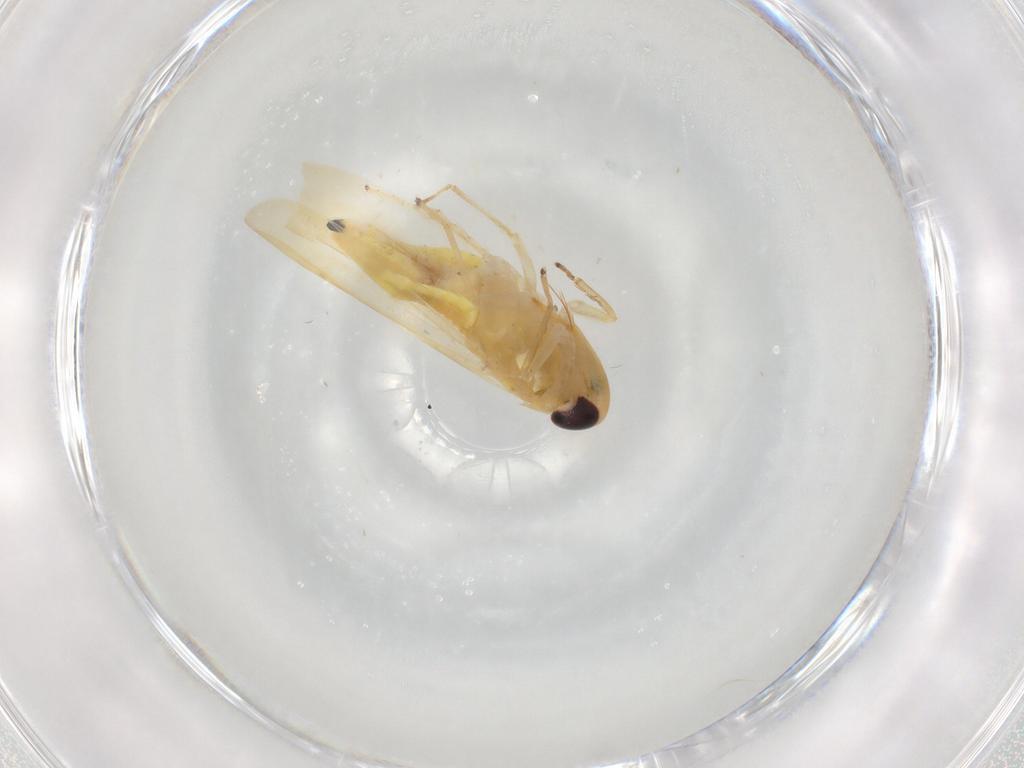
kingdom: Animalia
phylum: Arthropoda
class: Insecta
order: Hemiptera
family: Cicadellidae
